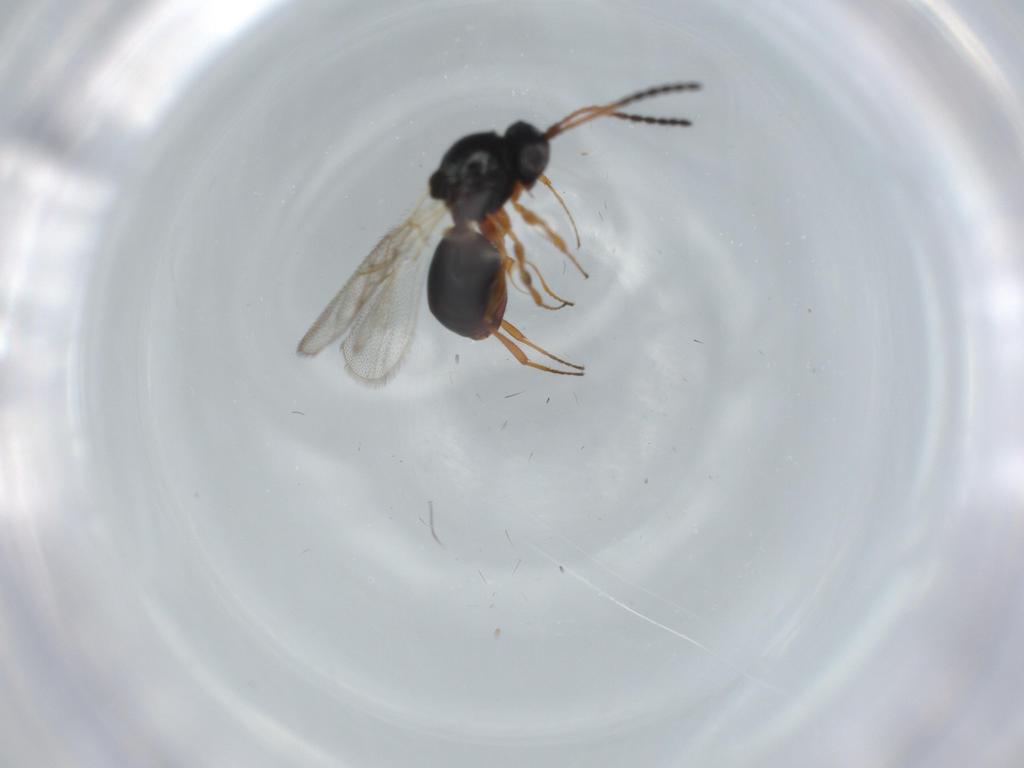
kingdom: Animalia
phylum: Arthropoda
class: Insecta
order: Hymenoptera
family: Figitidae
